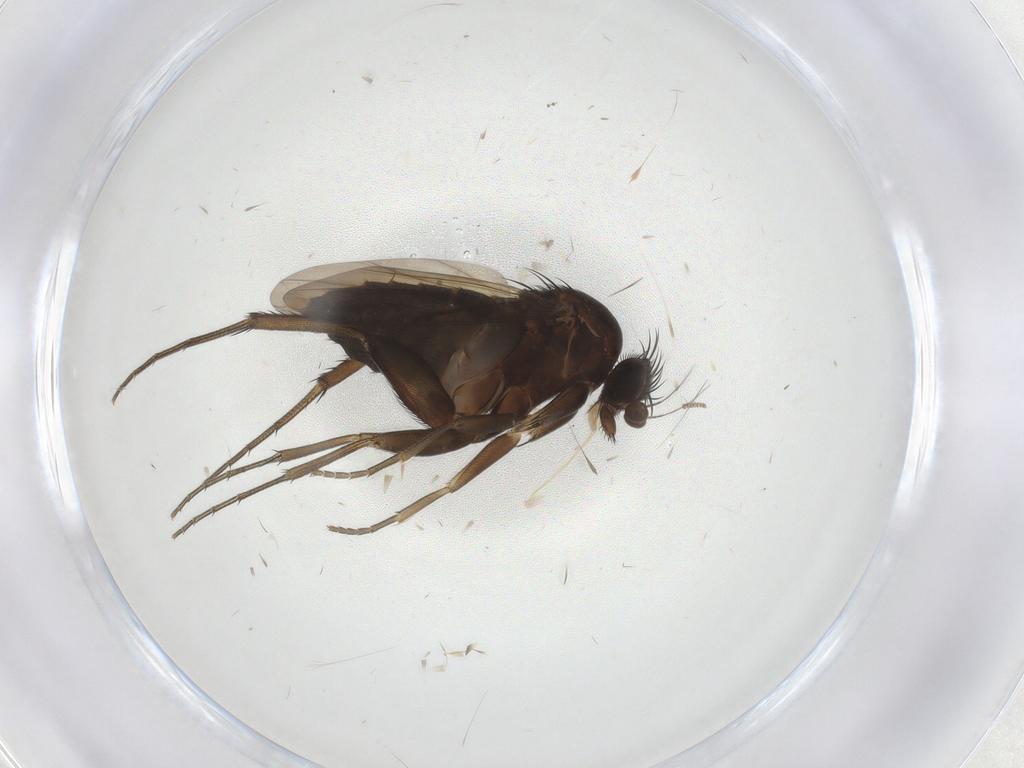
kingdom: Animalia
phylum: Arthropoda
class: Insecta
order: Diptera
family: Phoridae
